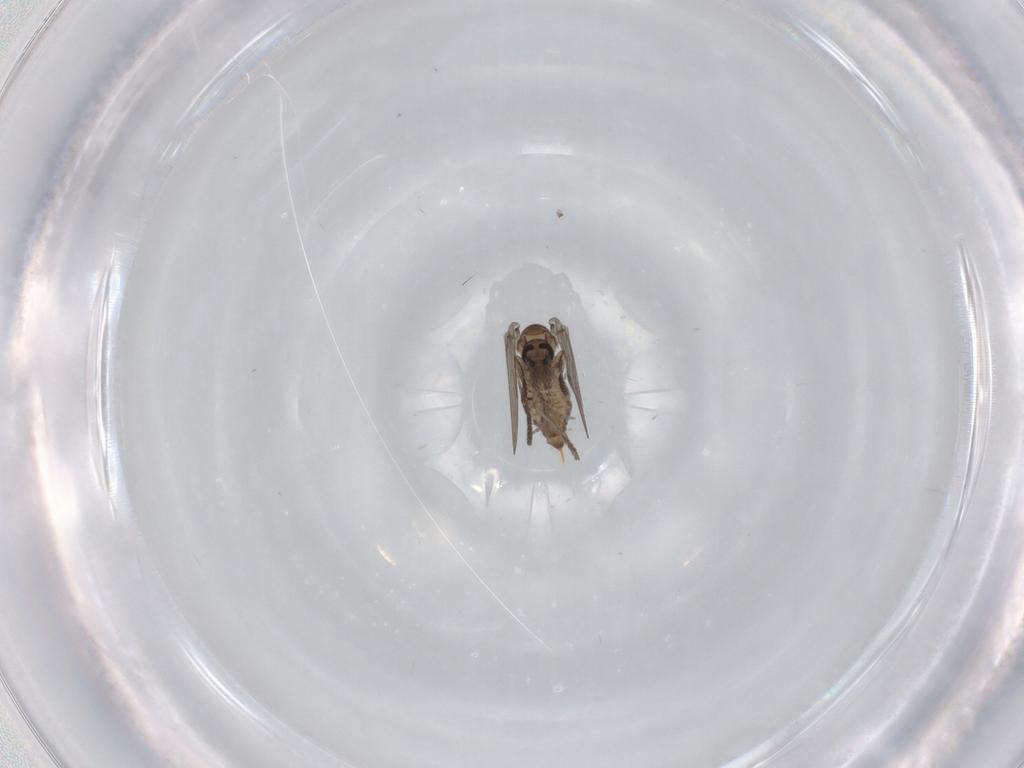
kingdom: Animalia
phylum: Arthropoda
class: Insecta
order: Diptera
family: Psychodidae
